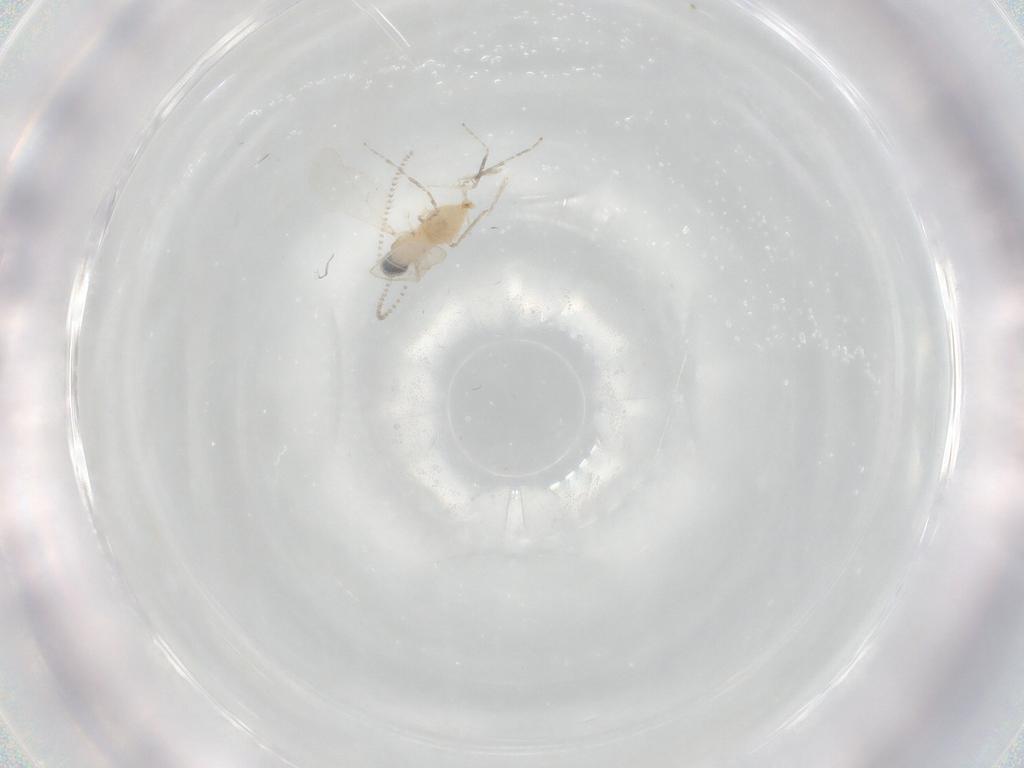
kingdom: Animalia
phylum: Arthropoda
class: Insecta
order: Diptera
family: Cecidomyiidae
